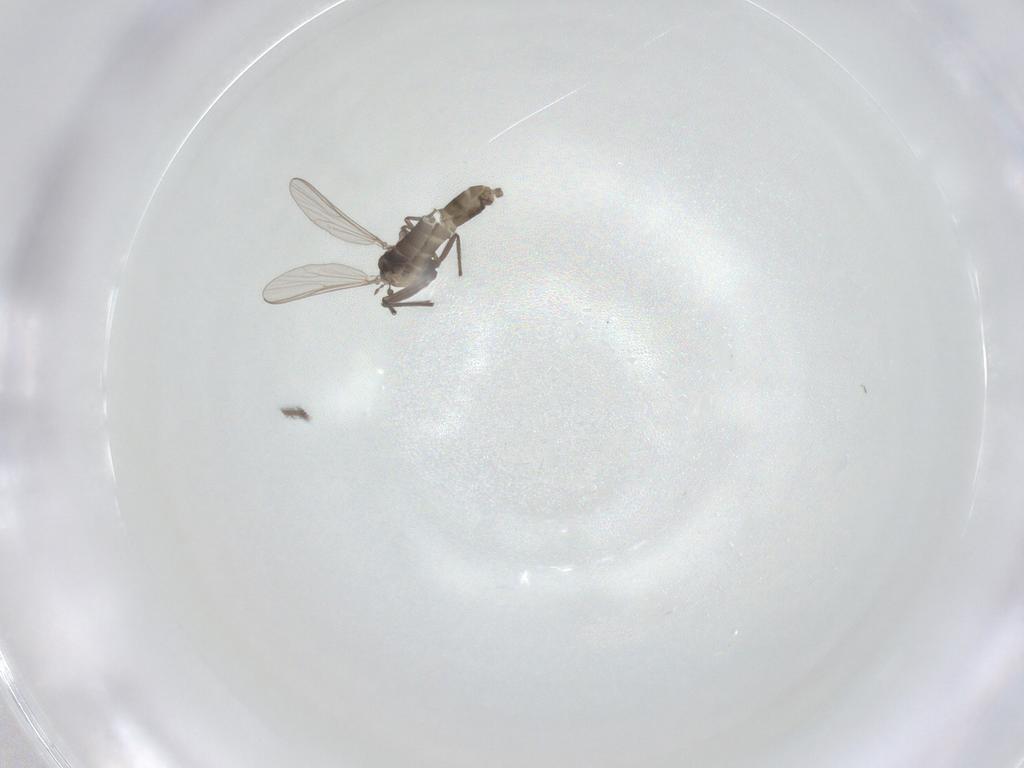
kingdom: Animalia
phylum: Arthropoda
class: Insecta
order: Diptera
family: Chironomidae
